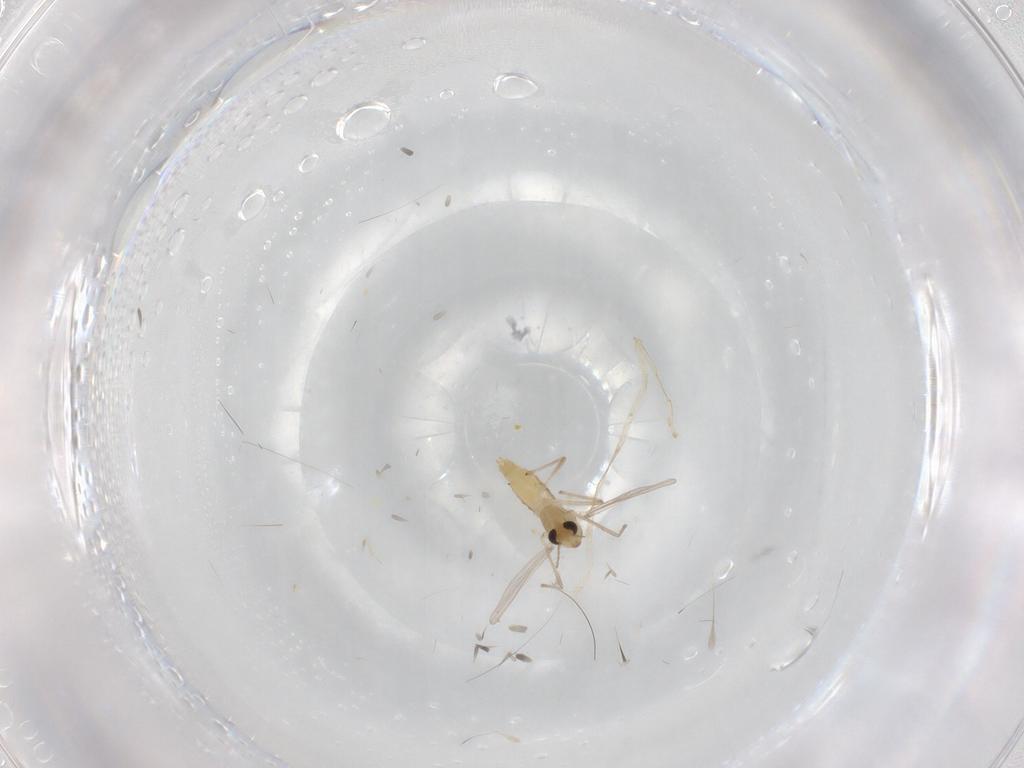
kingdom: Animalia
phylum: Arthropoda
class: Insecta
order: Diptera
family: Chironomidae
